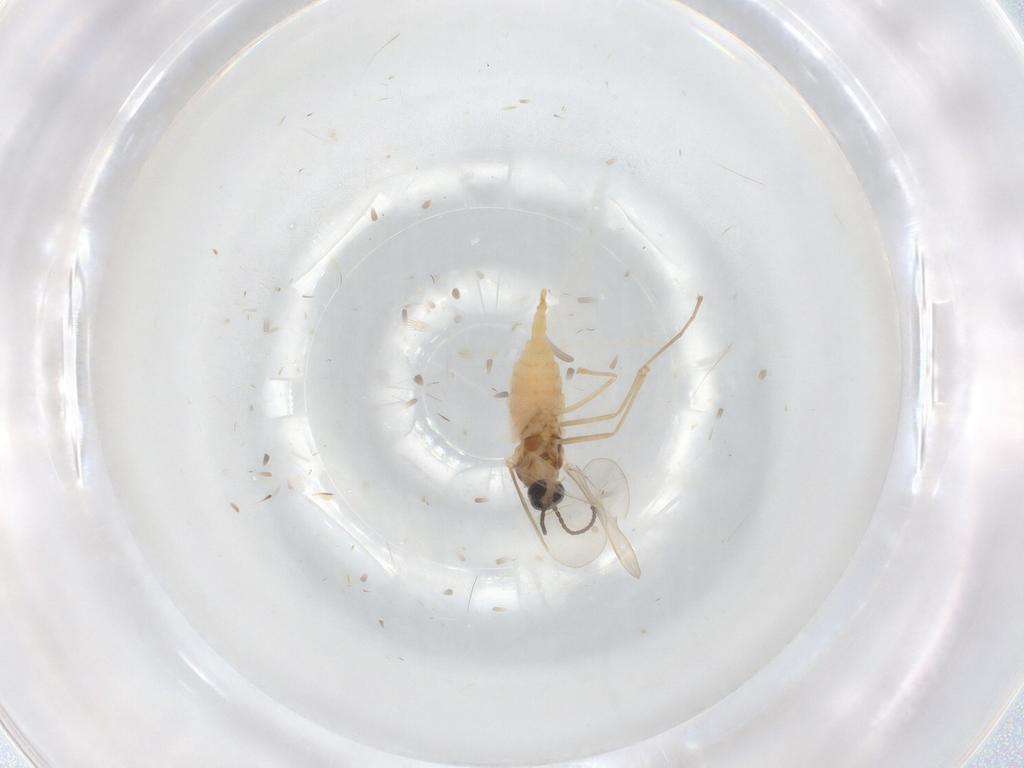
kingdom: Animalia
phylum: Arthropoda
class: Insecta
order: Diptera
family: Cecidomyiidae
